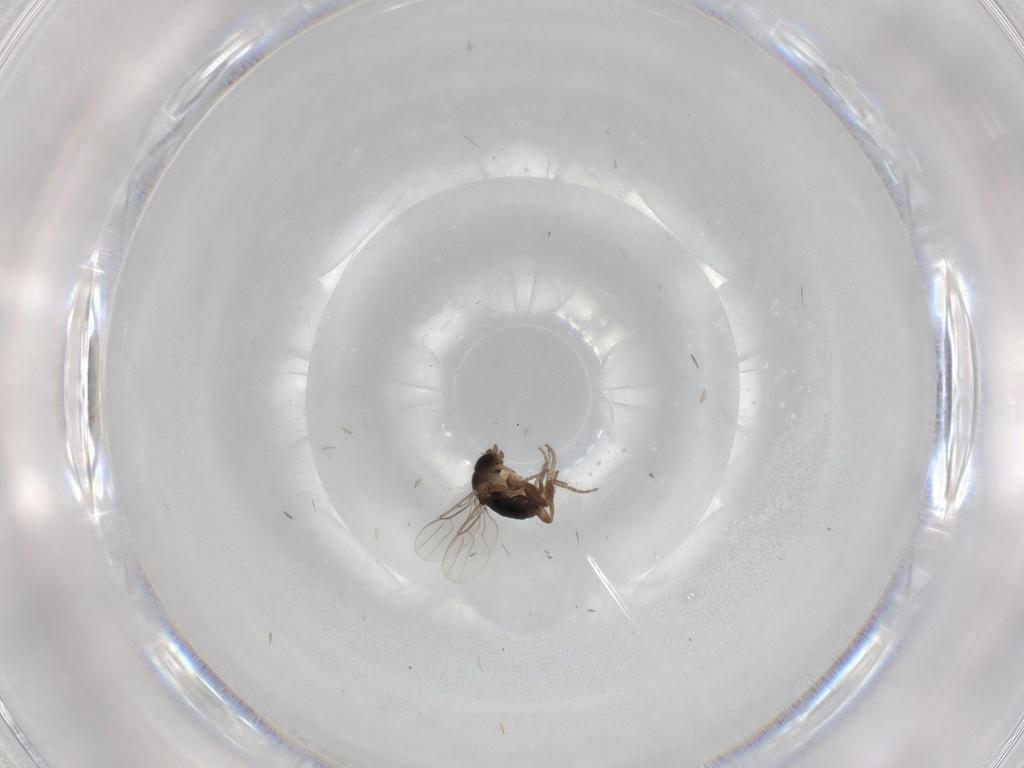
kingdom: Animalia
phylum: Arthropoda
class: Insecta
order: Diptera
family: Phoridae
